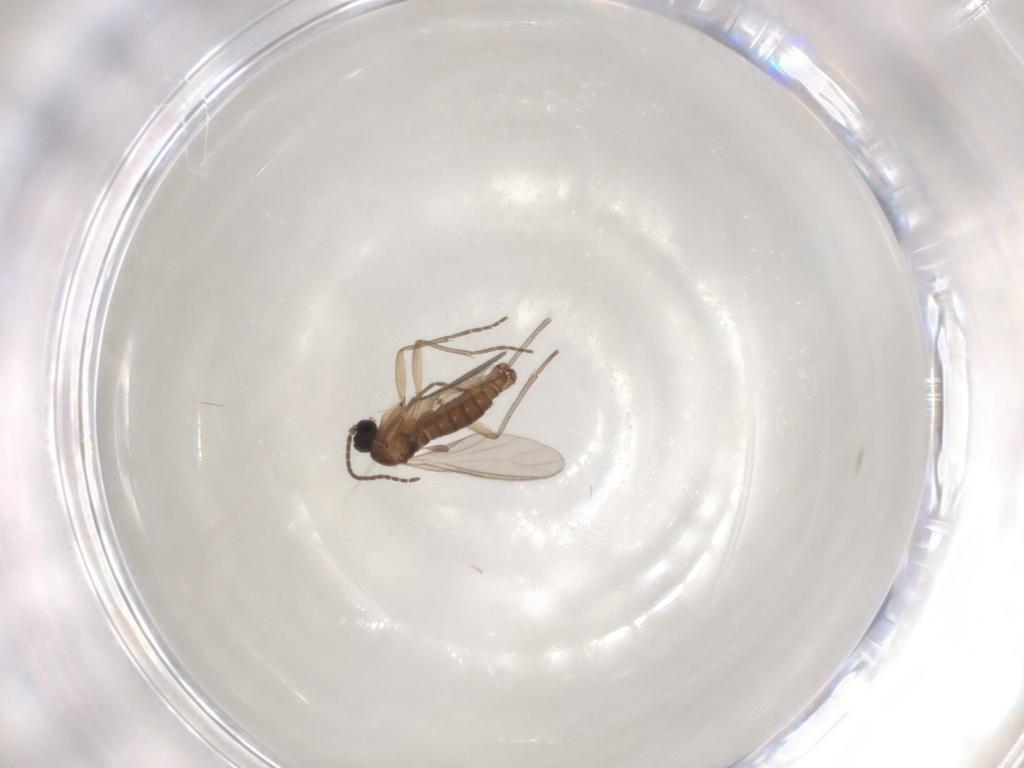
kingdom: Animalia
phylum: Arthropoda
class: Insecta
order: Diptera
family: Sciaridae
